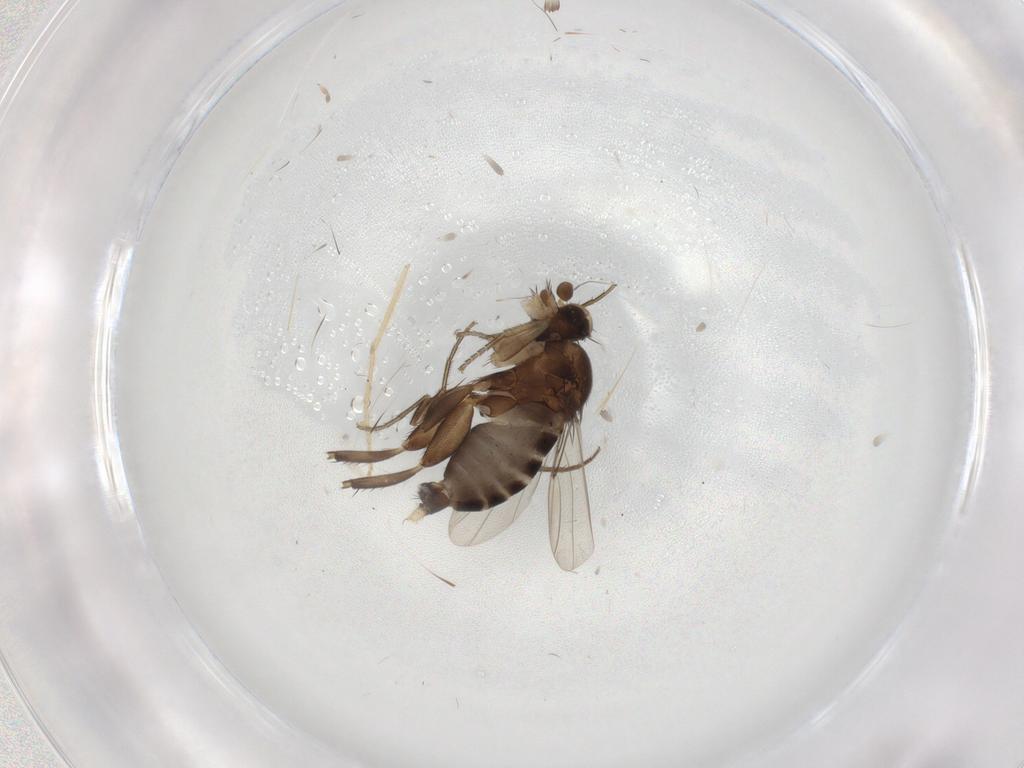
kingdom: Animalia
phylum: Arthropoda
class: Insecta
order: Diptera
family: Phoridae
